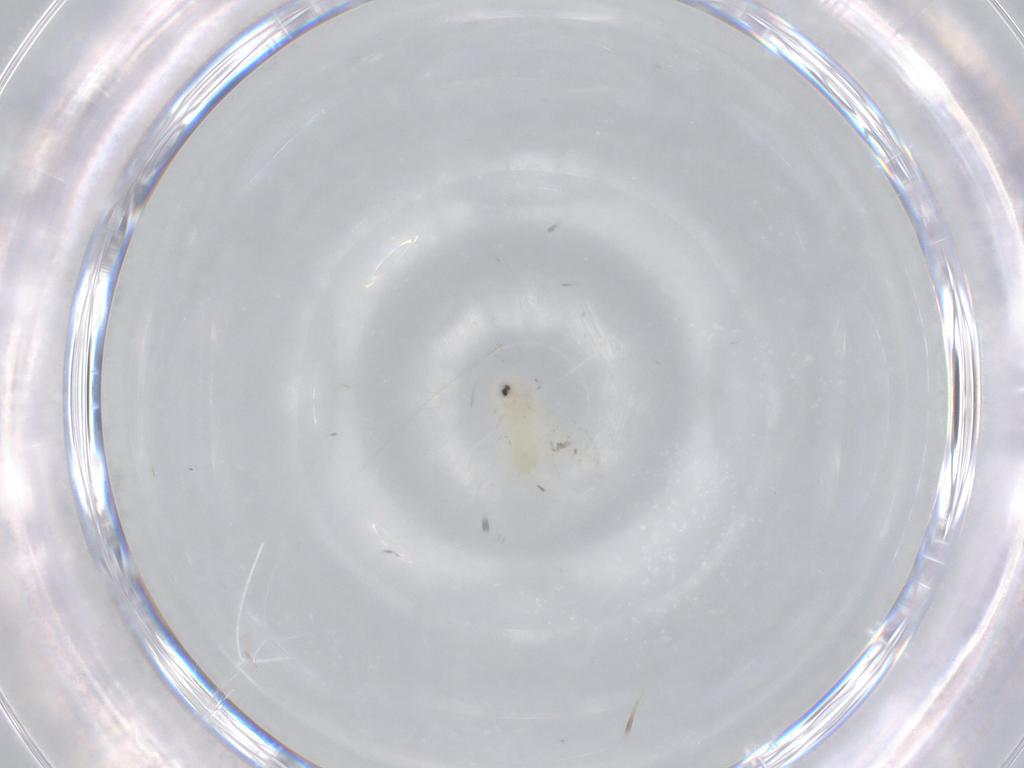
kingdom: Animalia
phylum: Arthropoda
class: Insecta
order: Hemiptera
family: Aleyrodidae
